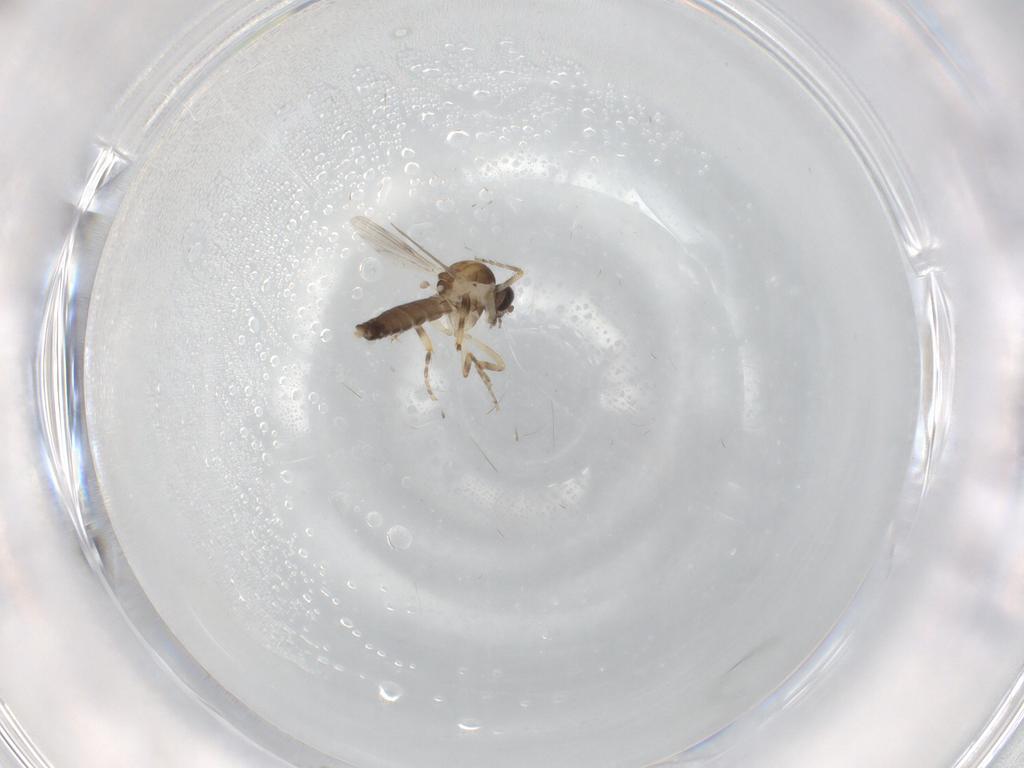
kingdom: Animalia
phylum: Arthropoda
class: Insecta
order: Diptera
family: Ceratopogonidae
